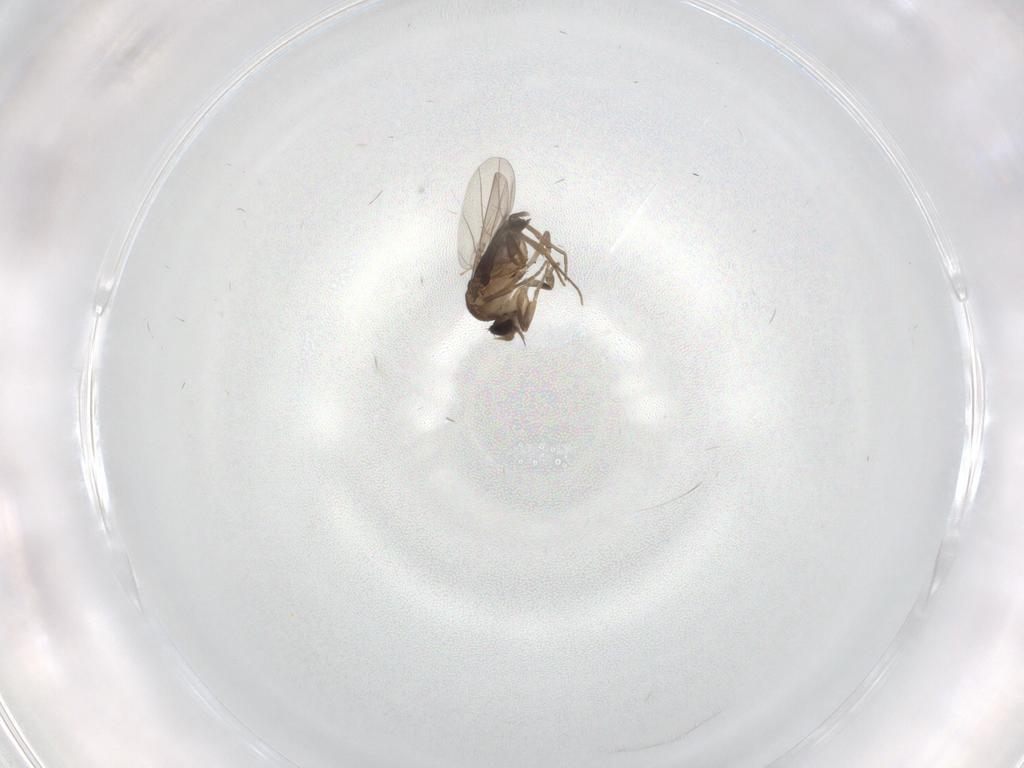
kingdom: Animalia
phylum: Arthropoda
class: Insecta
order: Diptera
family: Phoridae
